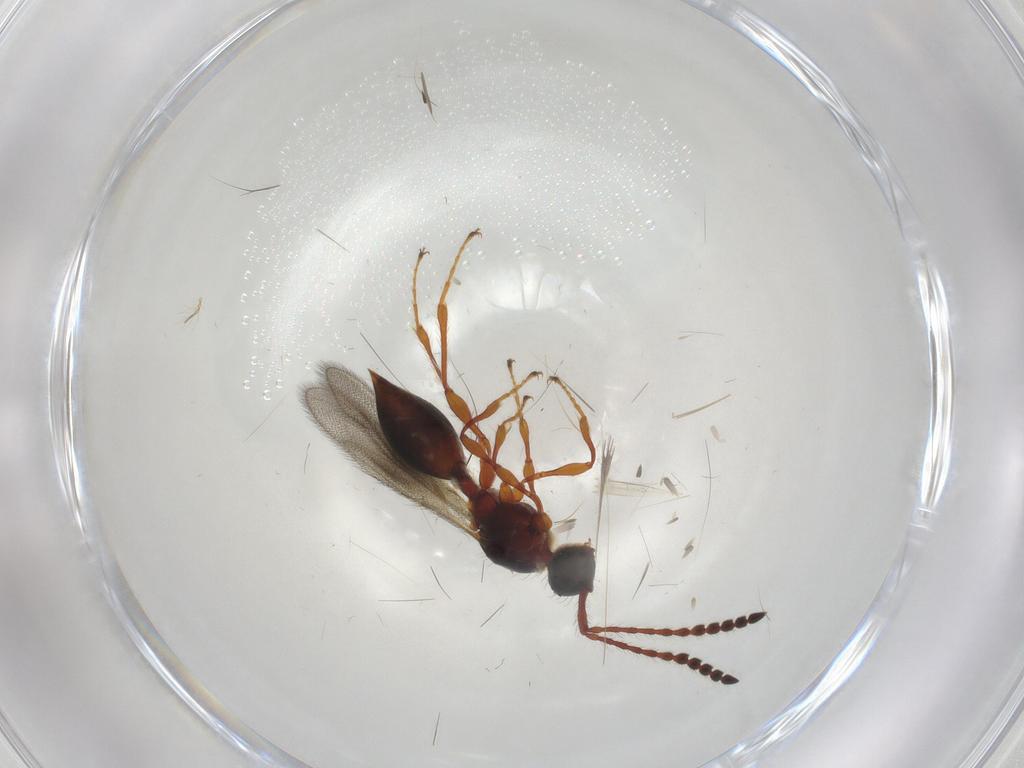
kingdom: Animalia
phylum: Arthropoda
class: Insecta
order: Hymenoptera
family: Diapriidae
